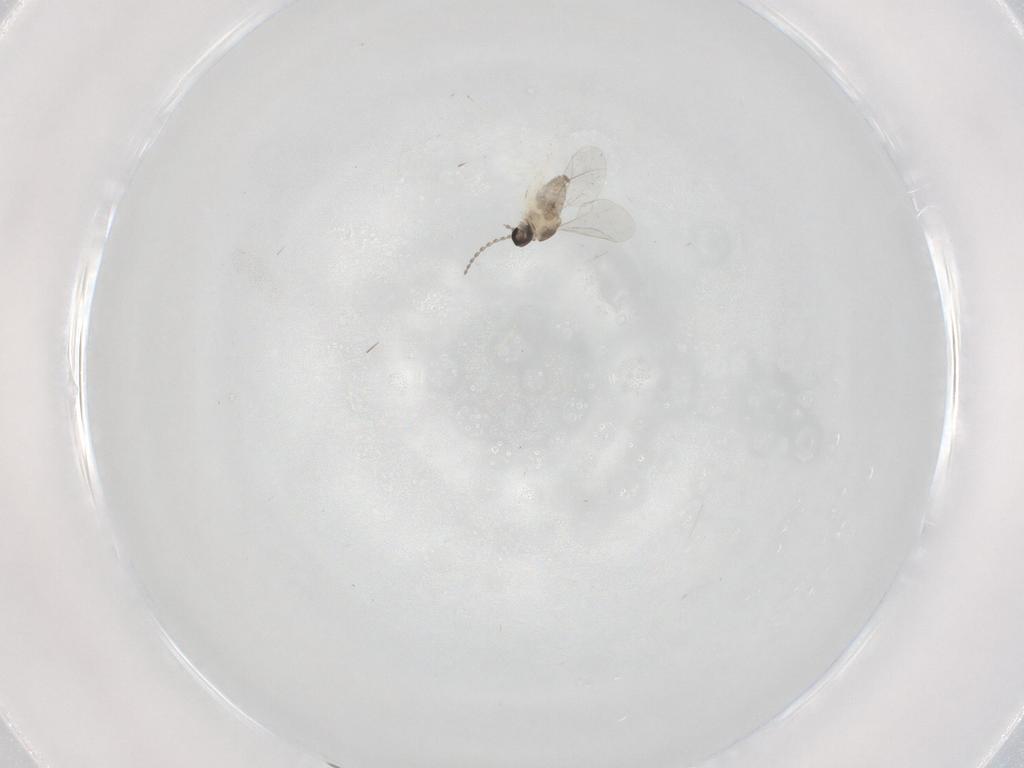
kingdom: Animalia
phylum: Arthropoda
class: Insecta
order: Diptera
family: Cecidomyiidae
